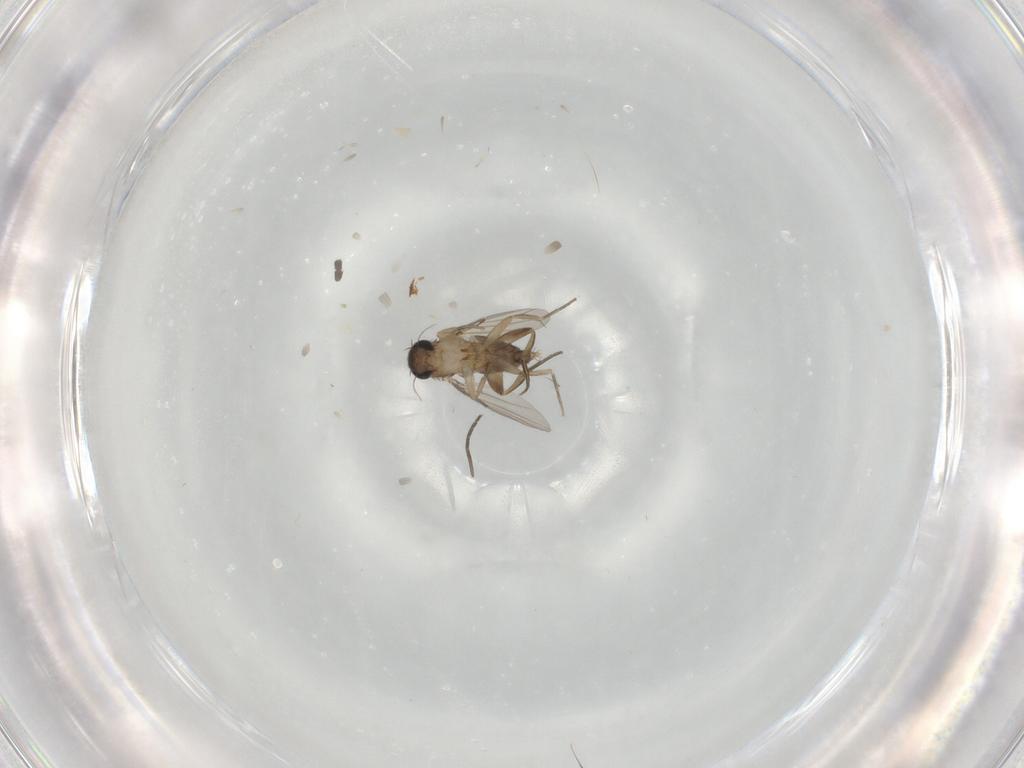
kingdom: Animalia
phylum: Arthropoda
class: Insecta
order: Diptera
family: Phoridae
